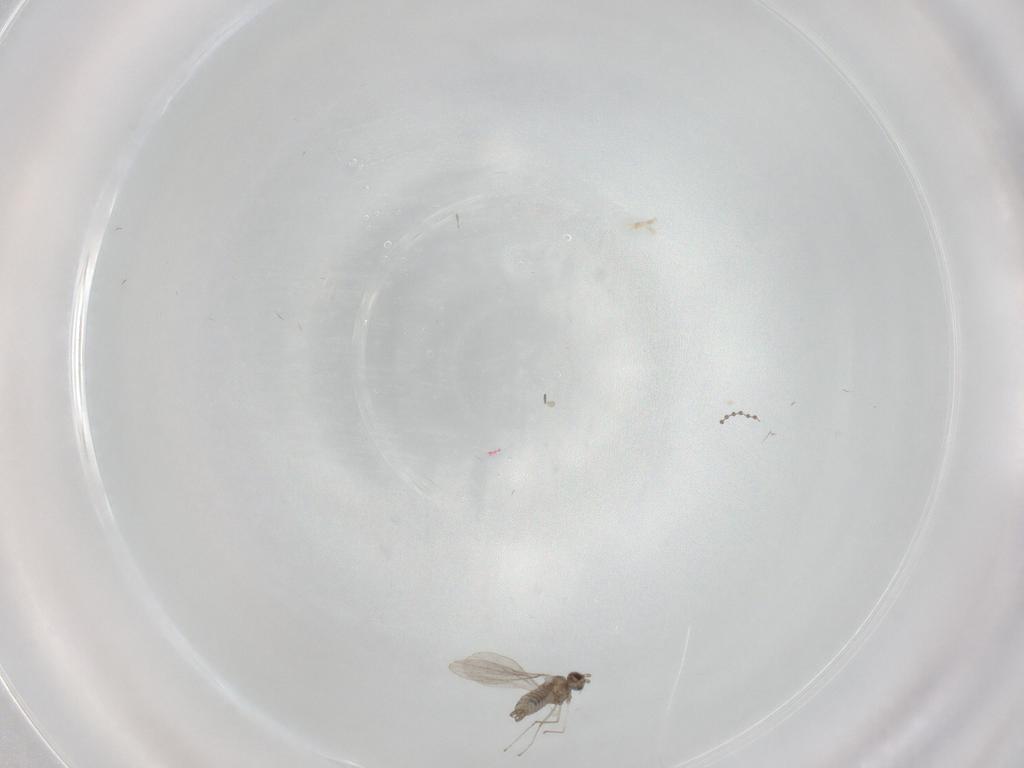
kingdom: Animalia
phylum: Arthropoda
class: Insecta
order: Diptera
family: Cecidomyiidae
